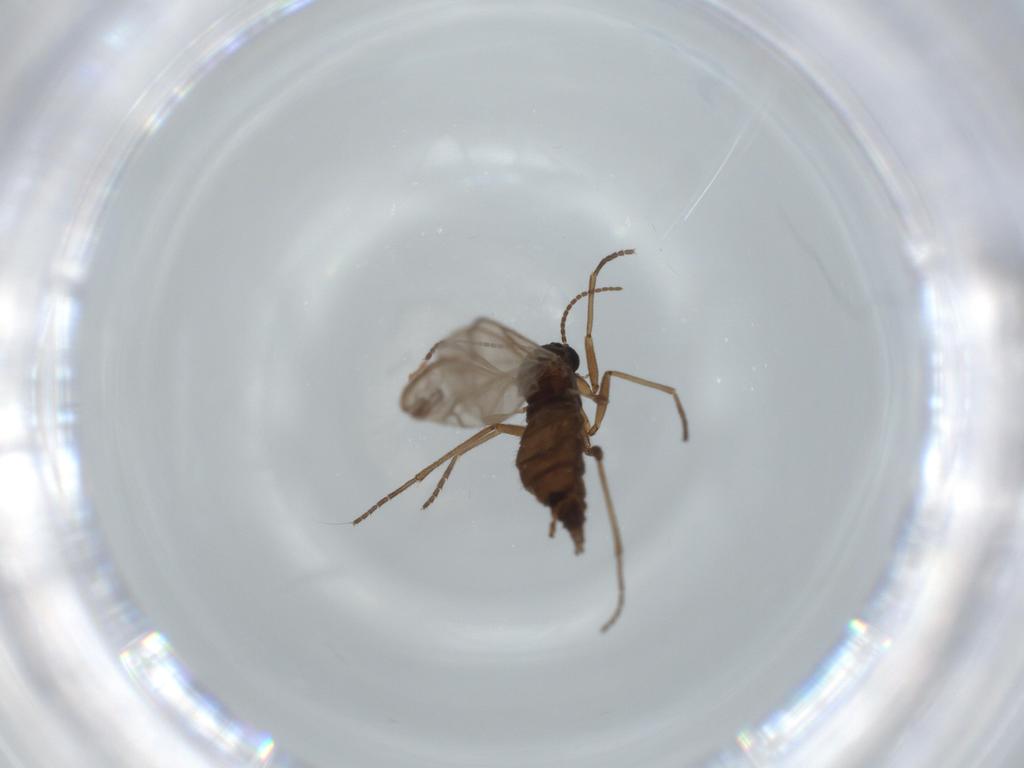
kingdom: Animalia
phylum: Arthropoda
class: Insecta
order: Diptera
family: Sciaridae
